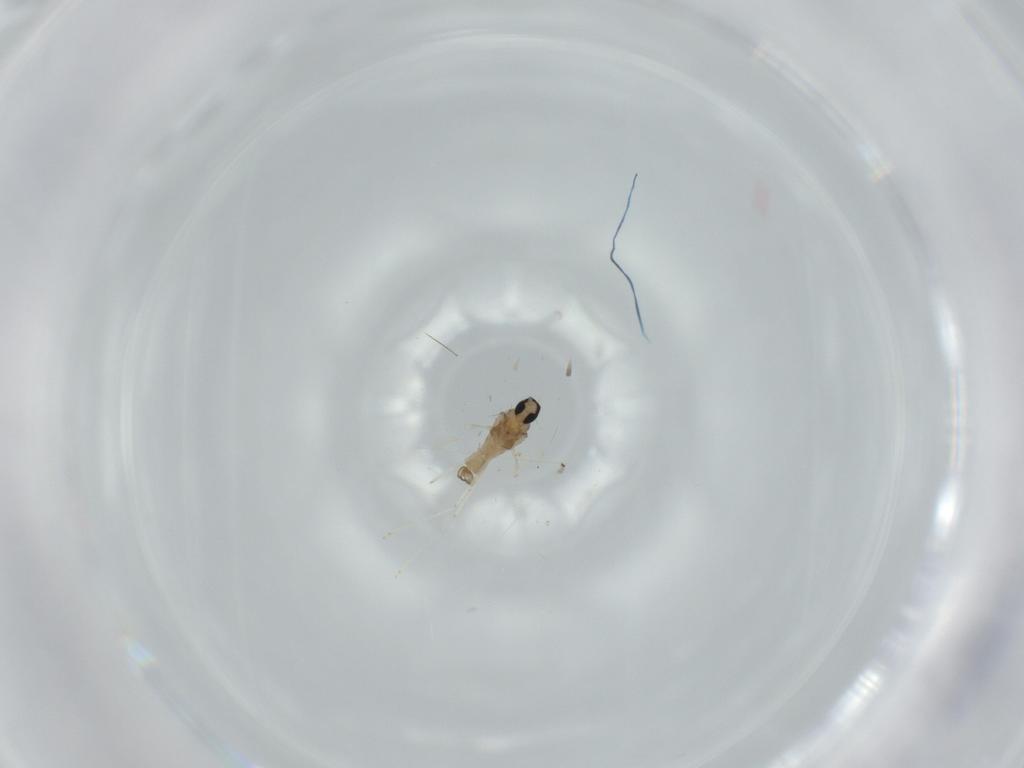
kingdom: Animalia
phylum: Arthropoda
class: Insecta
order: Diptera
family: Cecidomyiidae
